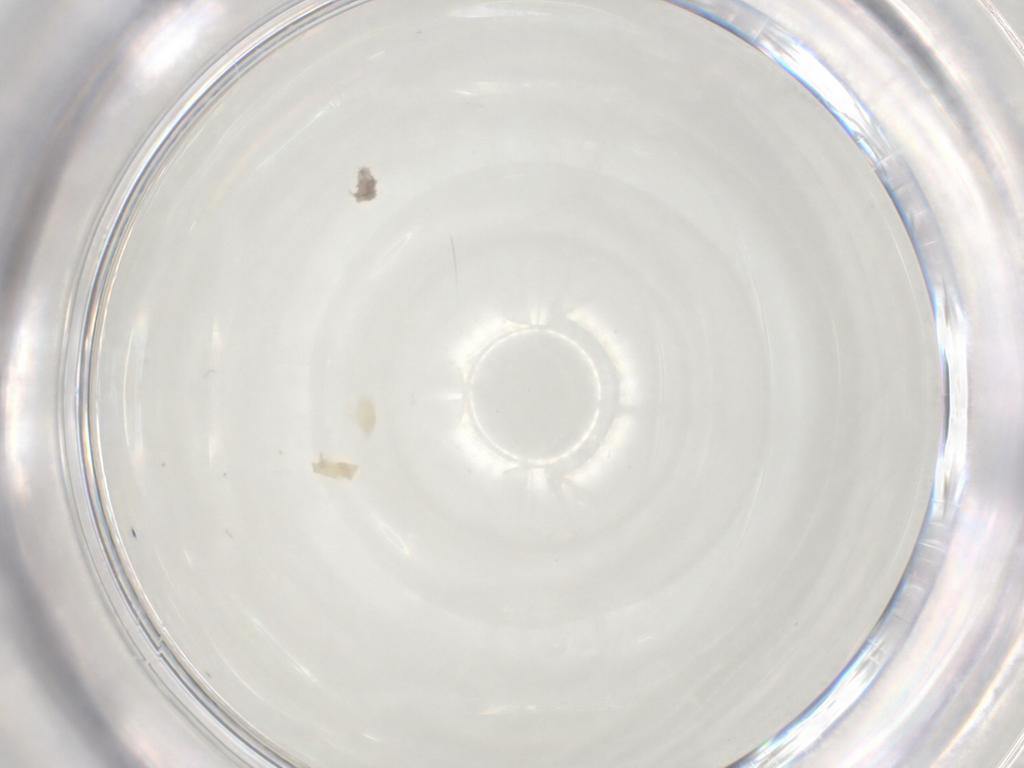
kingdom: Animalia
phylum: Arthropoda
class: Arachnida
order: Trombidiformes
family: Eupodidae
